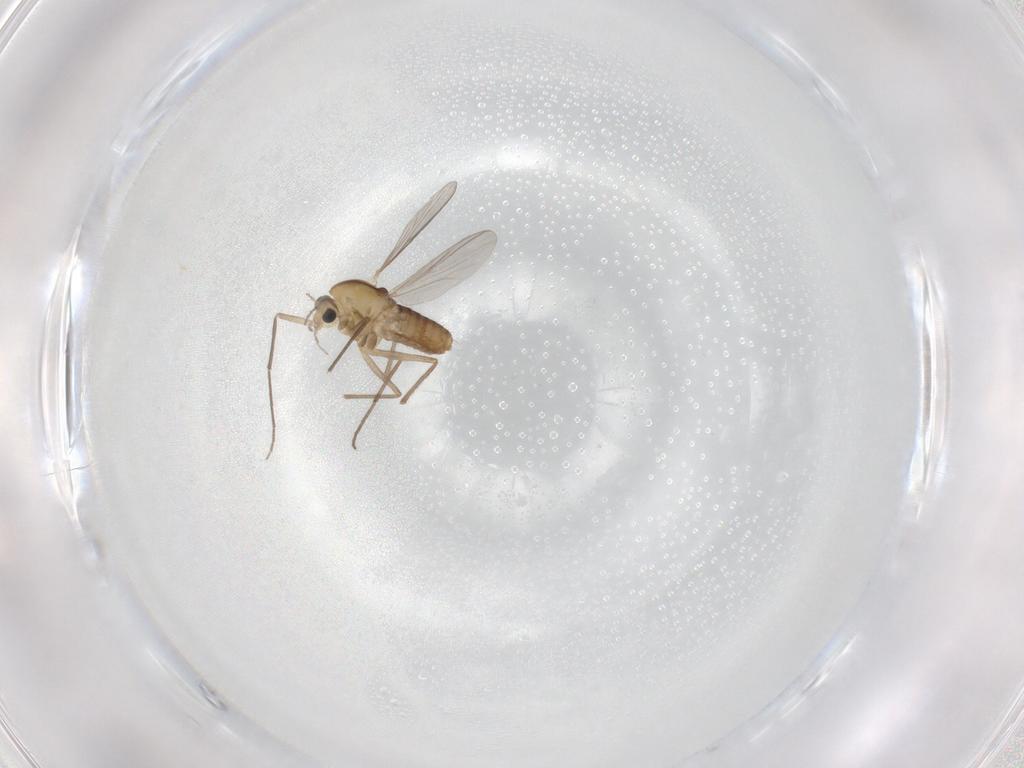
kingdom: Animalia
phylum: Arthropoda
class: Insecta
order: Diptera
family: Chironomidae
